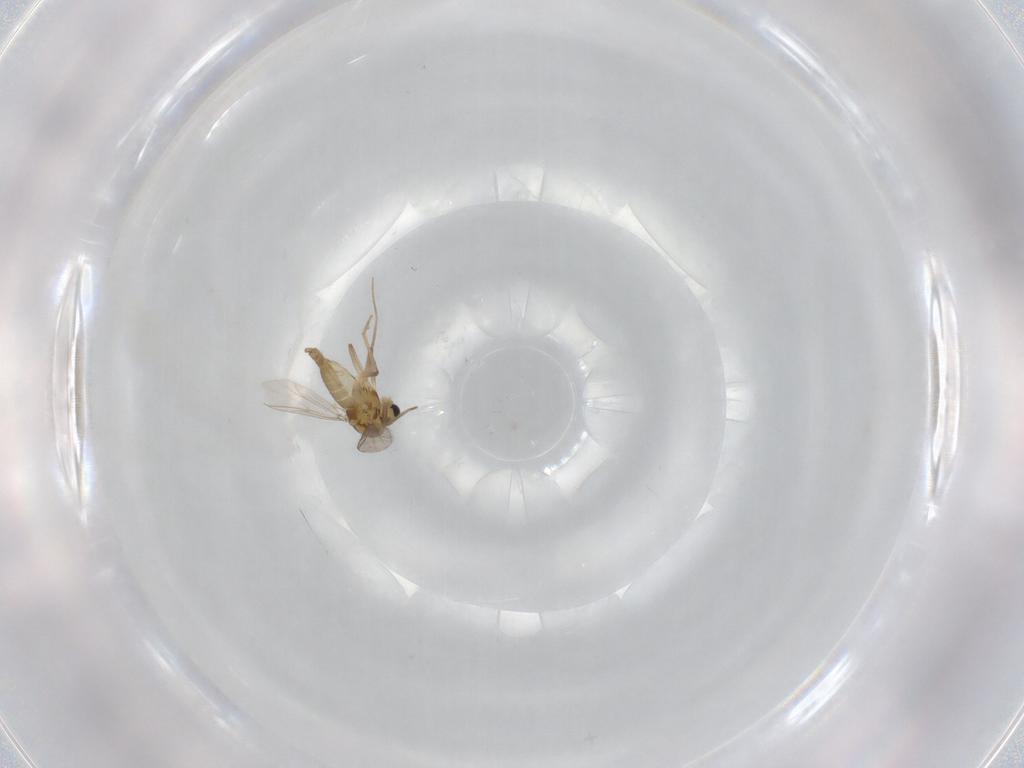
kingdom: Animalia
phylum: Arthropoda
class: Insecta
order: Diptera
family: Chironomidae
